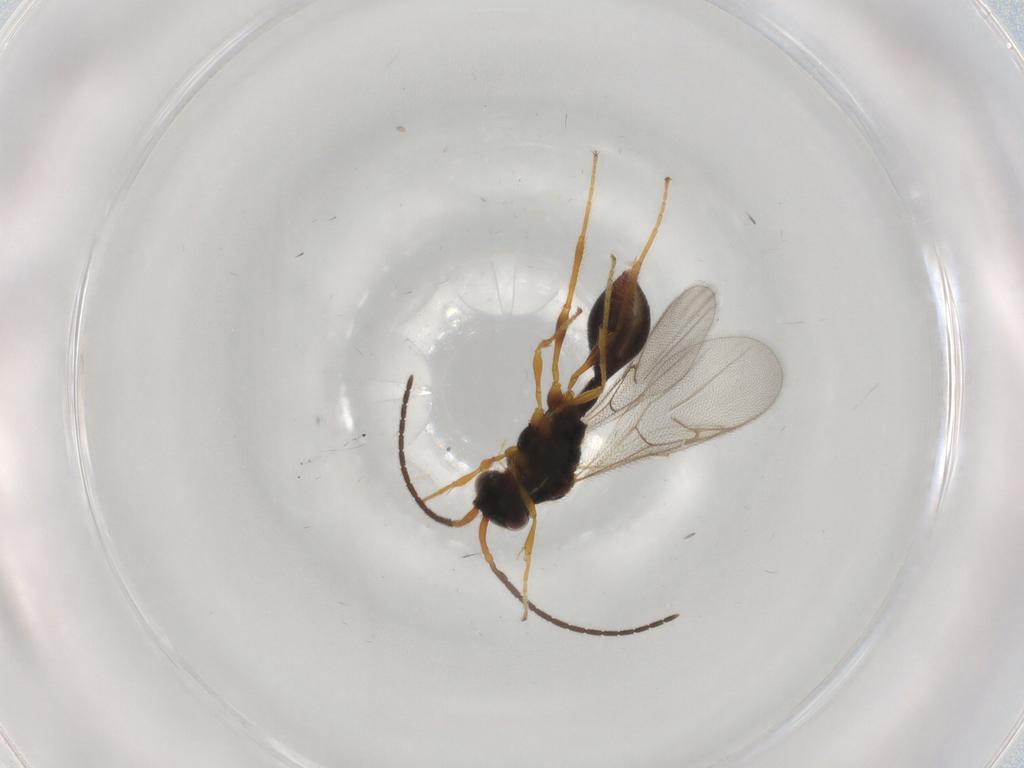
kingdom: Animalia
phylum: Arthropoda
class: Insecta
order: Hymenoptera
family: Diapriidae
